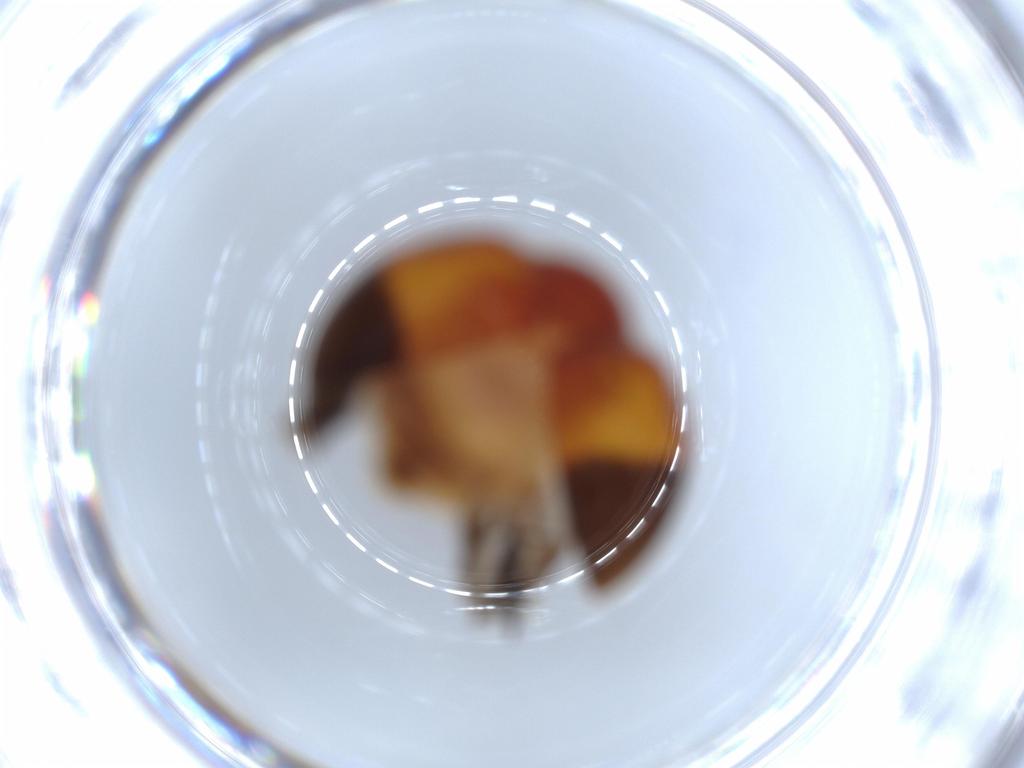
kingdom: Animalia
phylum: Arthropoda
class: Insecta
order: Coleoptera
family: Scirtidae
